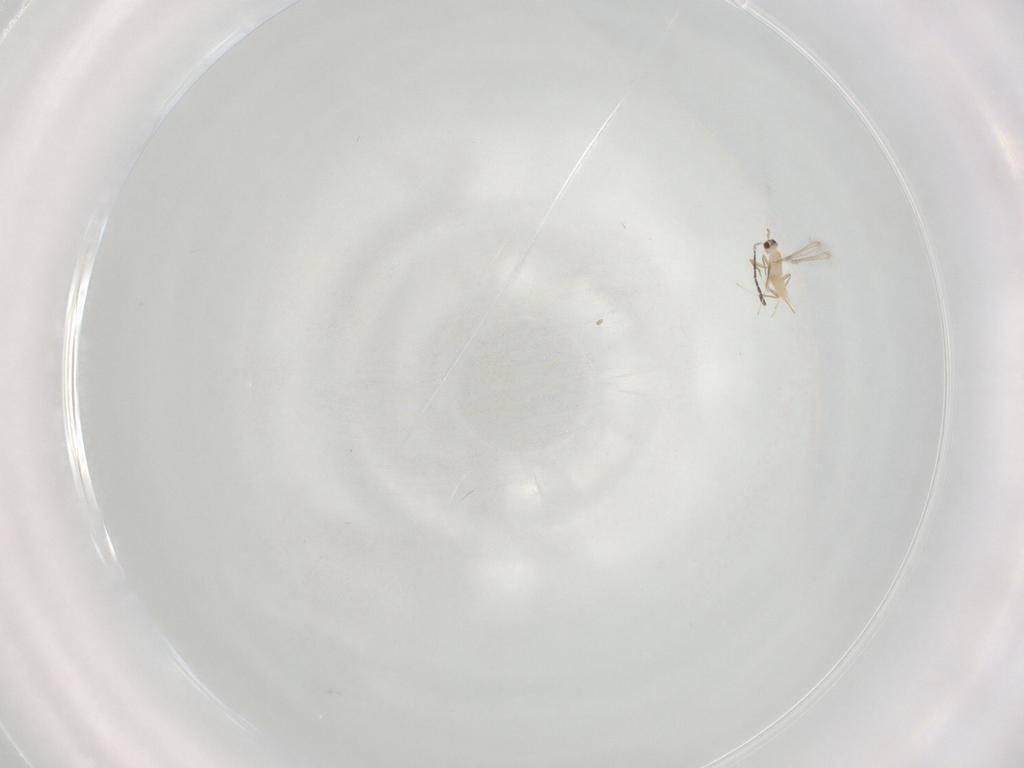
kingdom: Animalia
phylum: Arthropoda
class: Insecta
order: Hymenoptera
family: Mymaridae
